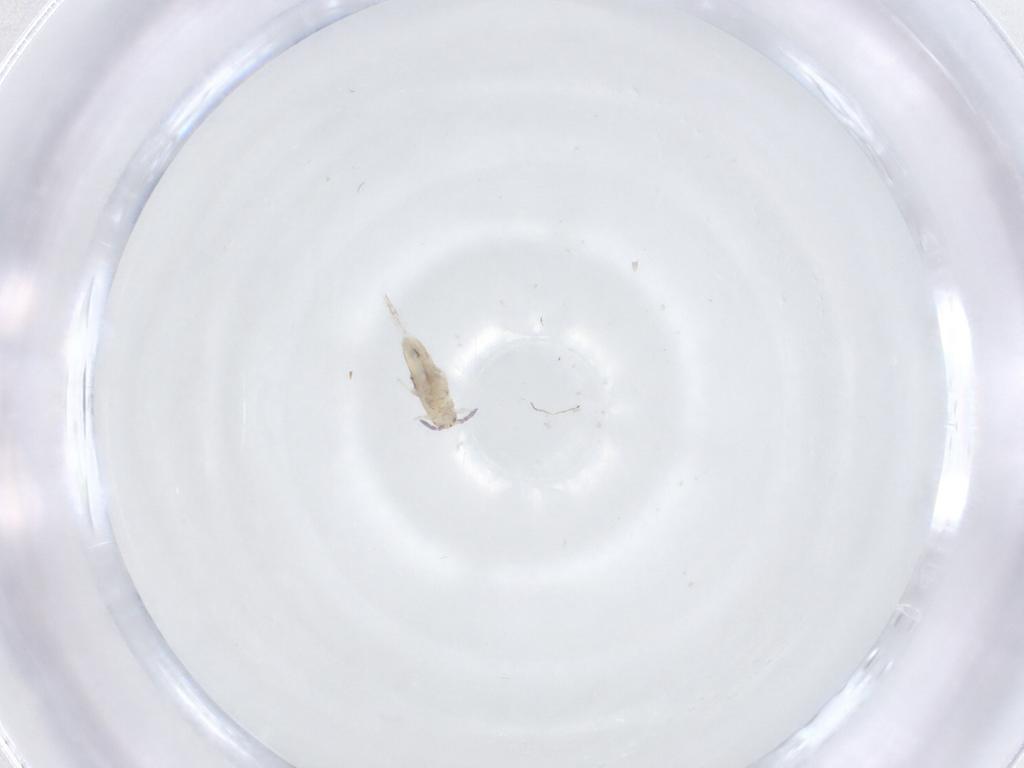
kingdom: Animalia
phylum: Arthropoda
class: Collembola
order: Entomobryomorpha
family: Entomobryidae
